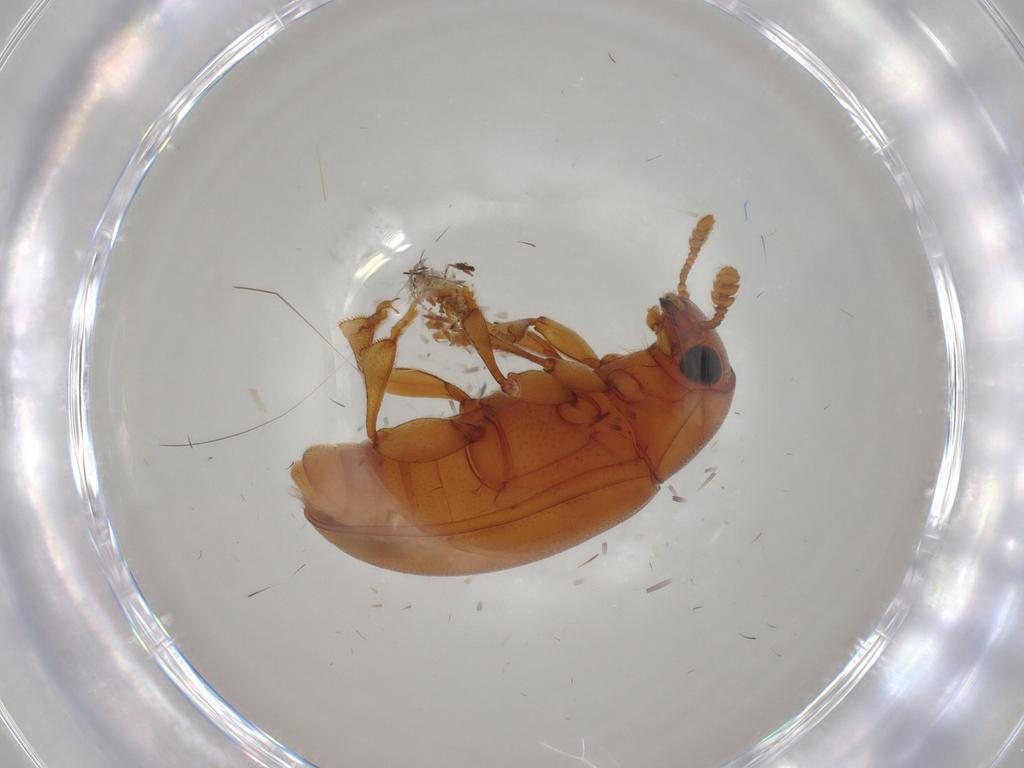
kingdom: Animalia
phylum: Arthropoda
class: Insecta
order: Coleoptera
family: Erotylidae
